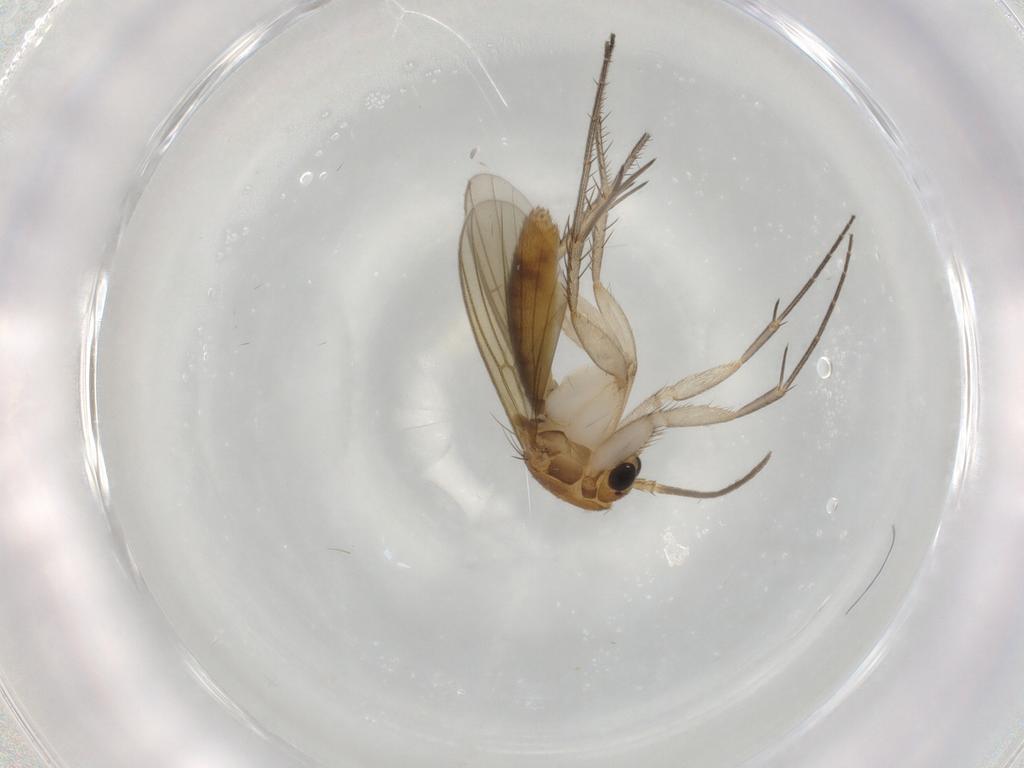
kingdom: Animalia
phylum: Arthropoda
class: Insecta
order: Diptera
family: Mycetophilidae
